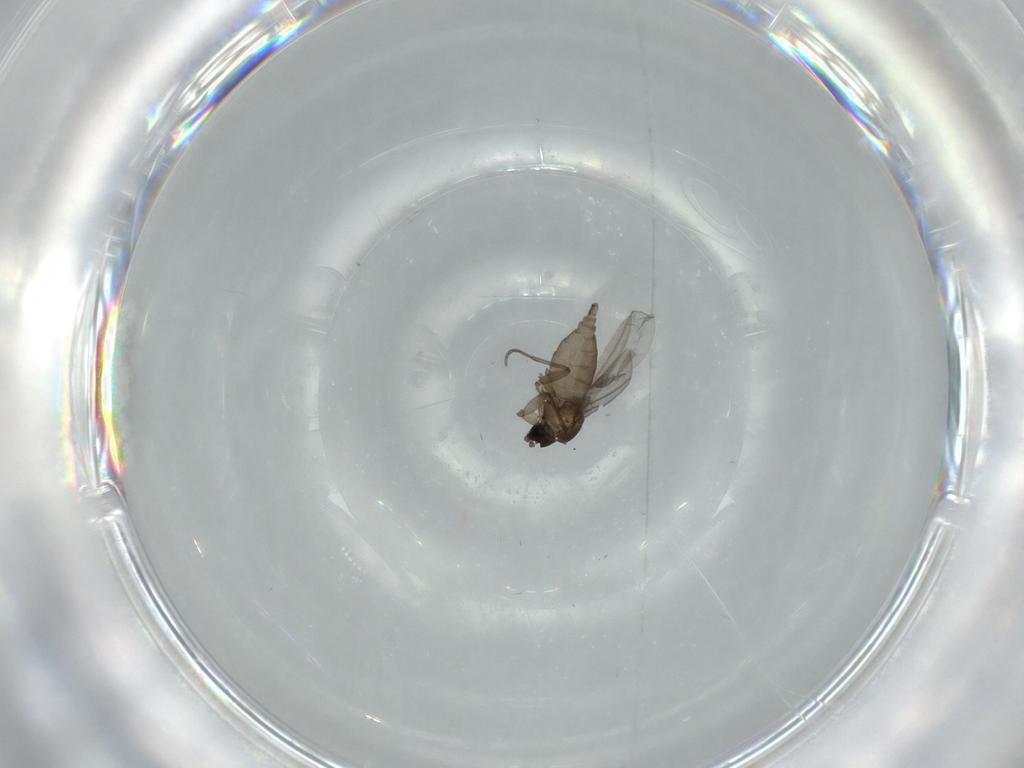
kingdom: Animalia
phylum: Arthropoda
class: Insecta
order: Diptera
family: Sciaridae
